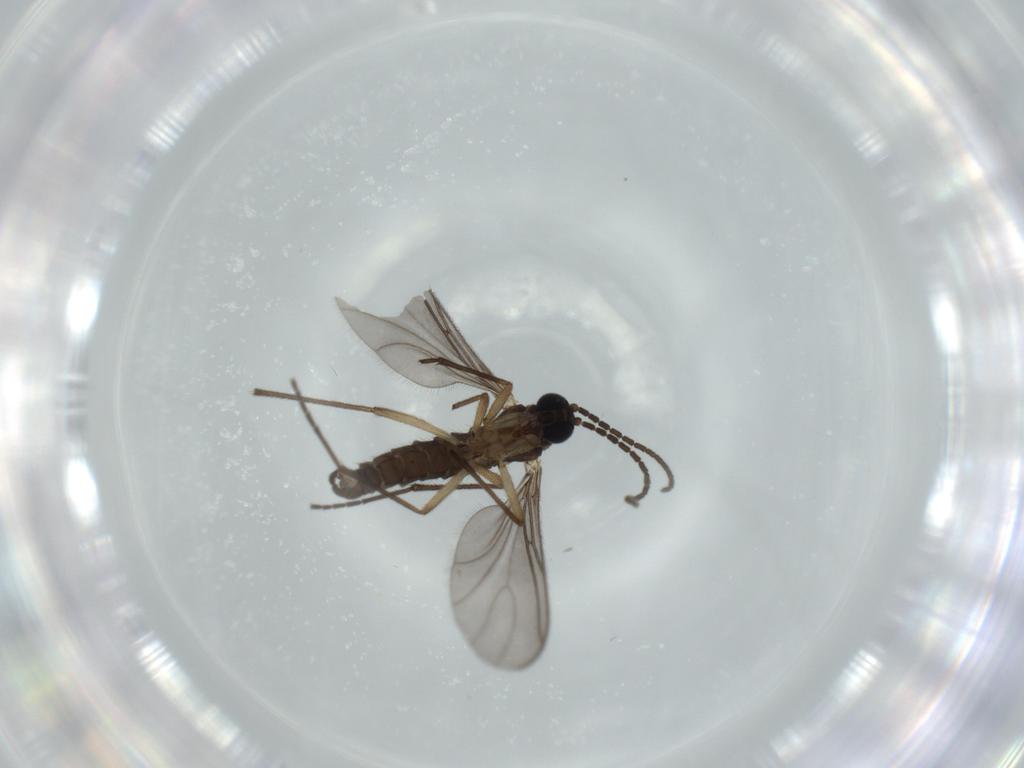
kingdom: Animalia
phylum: Arthropoda
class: Insecta
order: Diptera
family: Sciaridae
